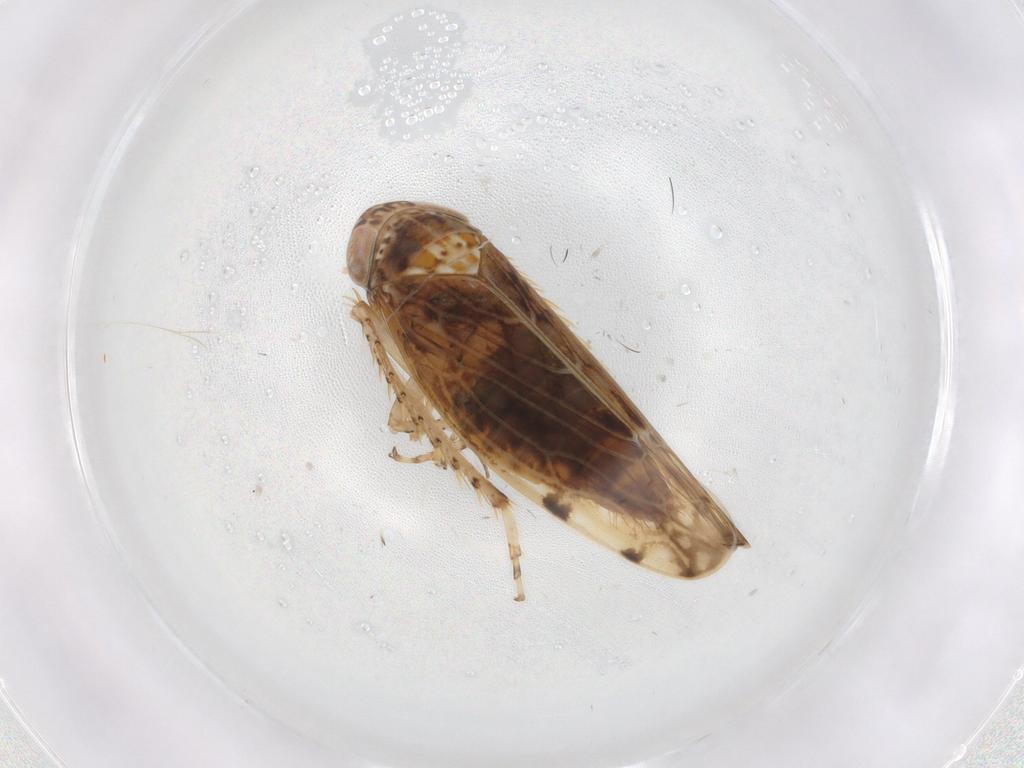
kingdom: Animalia
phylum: Arthropoda
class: Insecta
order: Hemiptera
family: Cicadellidae
